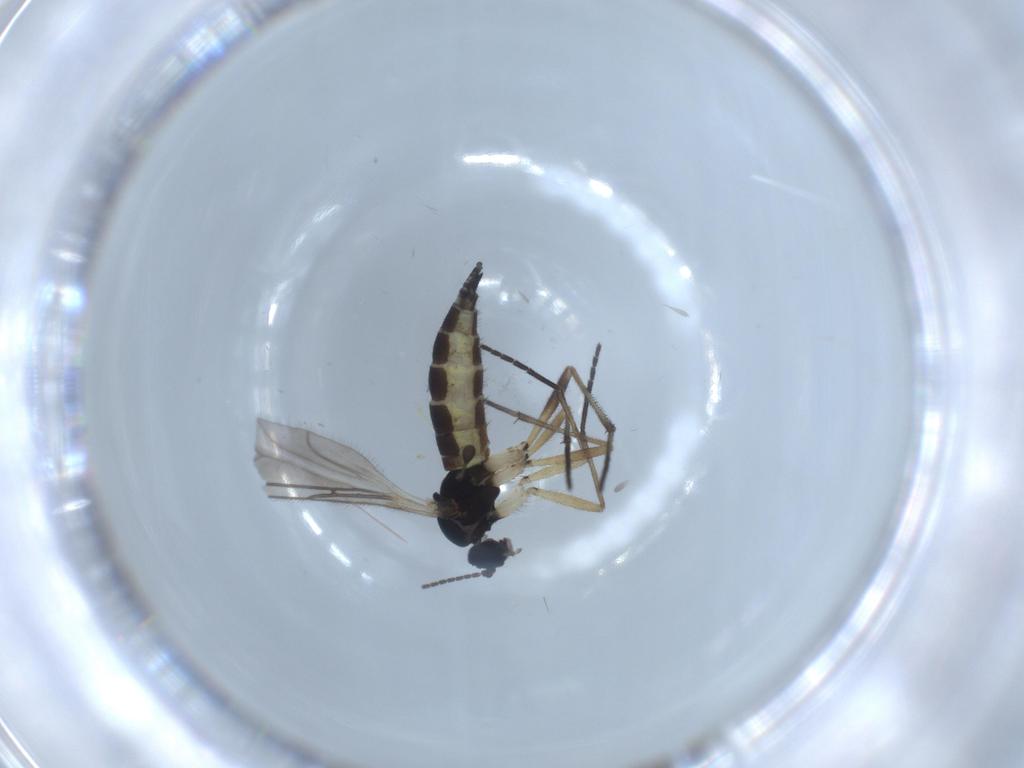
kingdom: Animalia
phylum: Arthropoda
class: Insecta
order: Diptera
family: Sciaridae
